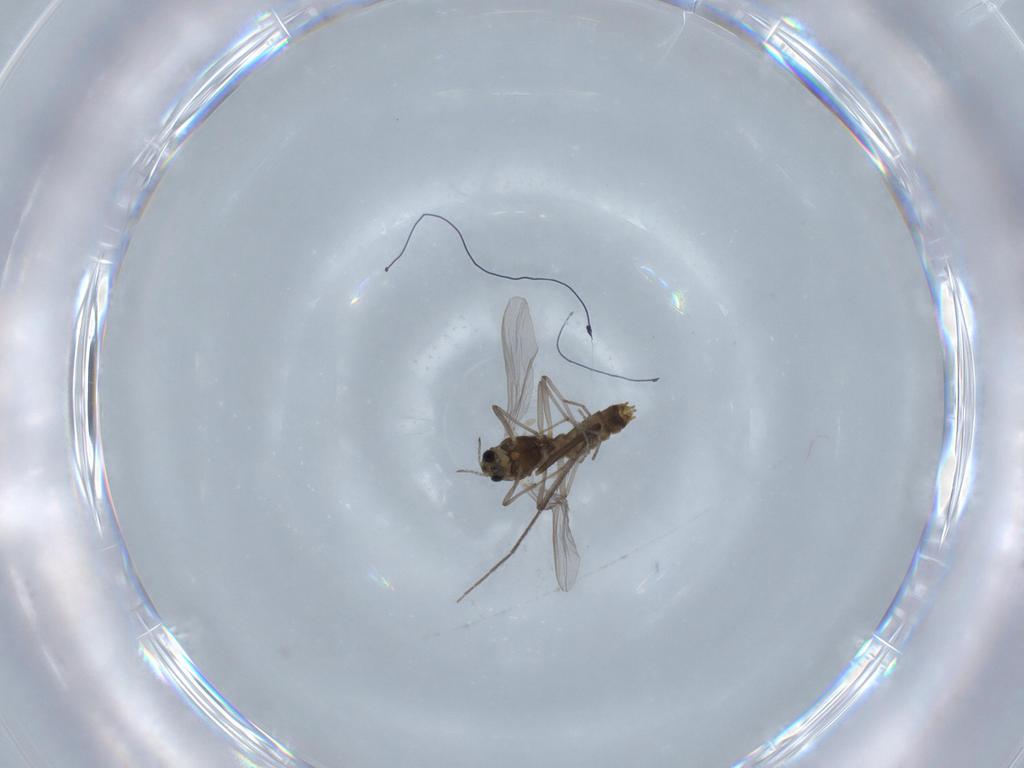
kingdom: Animalia
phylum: Arthropoda
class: Insecta
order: Diptera
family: Chironomidae
